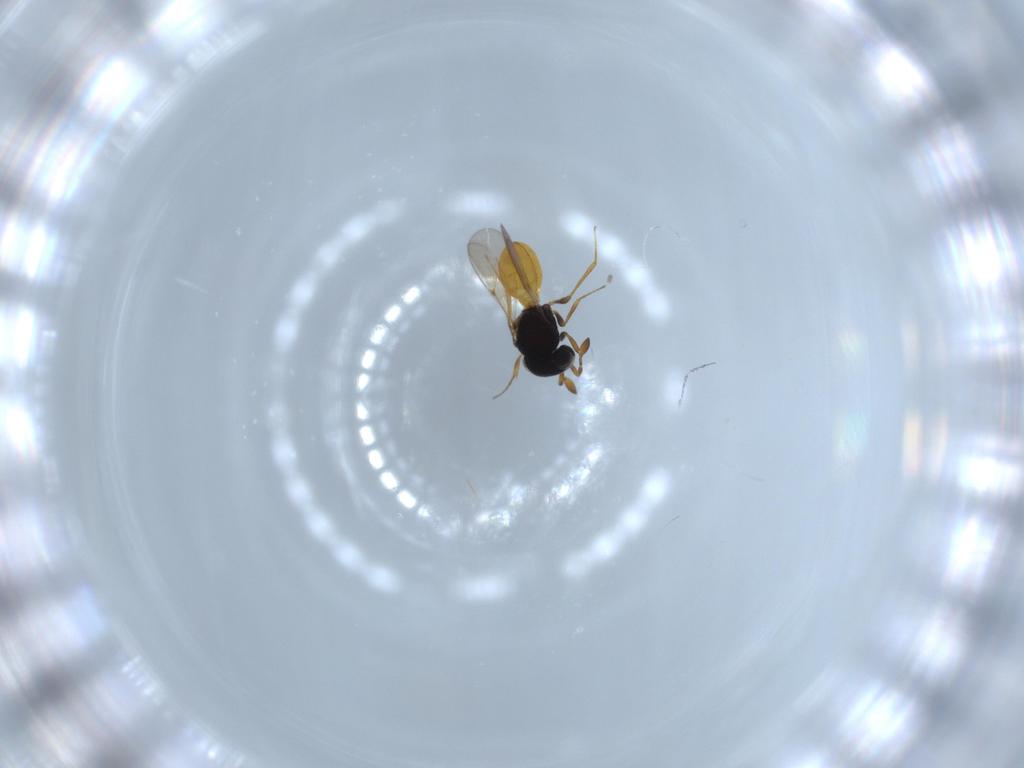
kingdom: Animalia
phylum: Arthropoda
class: Insecta
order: Hymenoptera
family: Scelionidae
